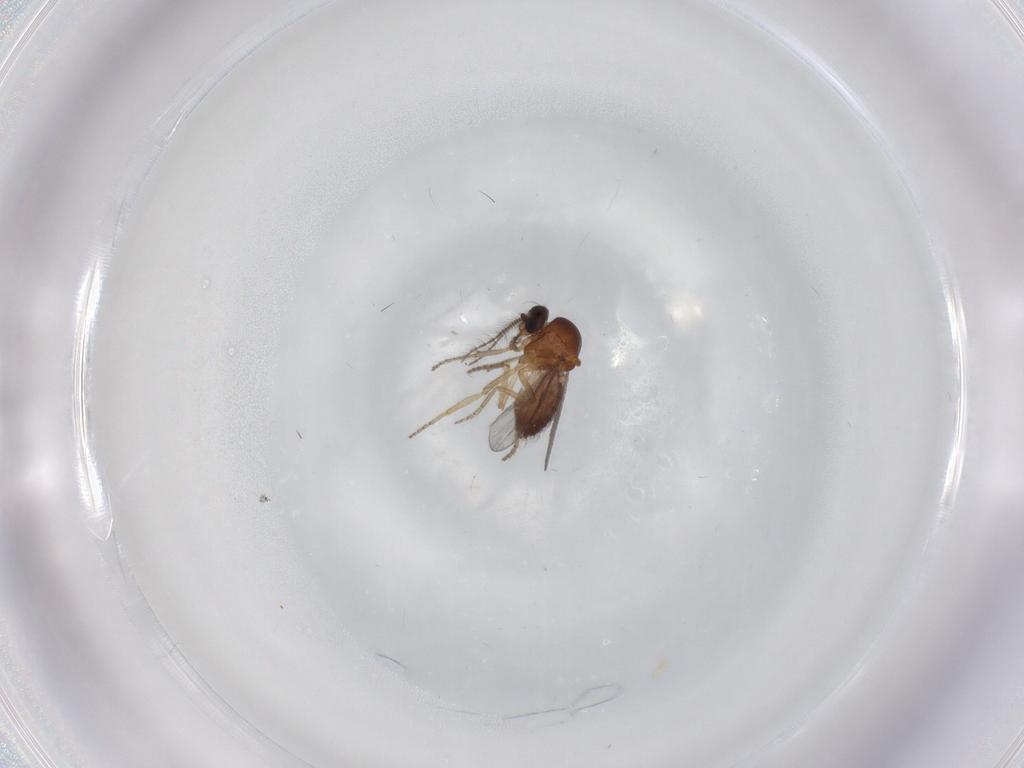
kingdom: Animalia
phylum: Arthropoda
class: Insecta
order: Diptera
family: Ceratopogonidae
